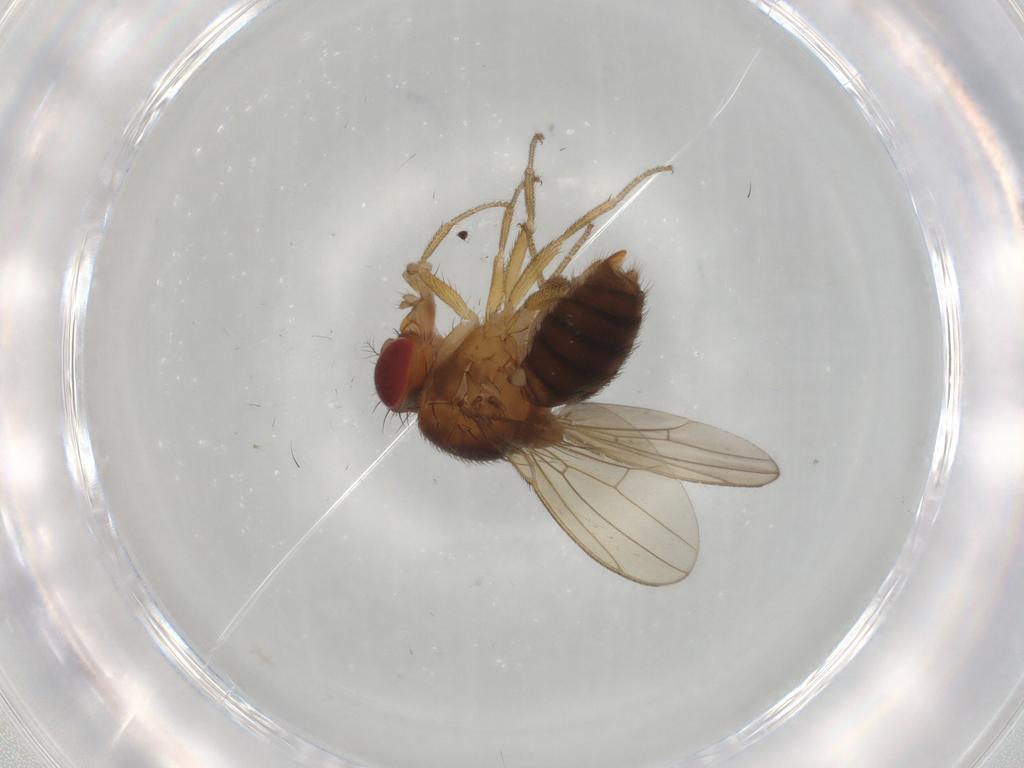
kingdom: Animalia
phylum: Arthropoda
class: Insecta
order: Diptera
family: Drosophilidae
